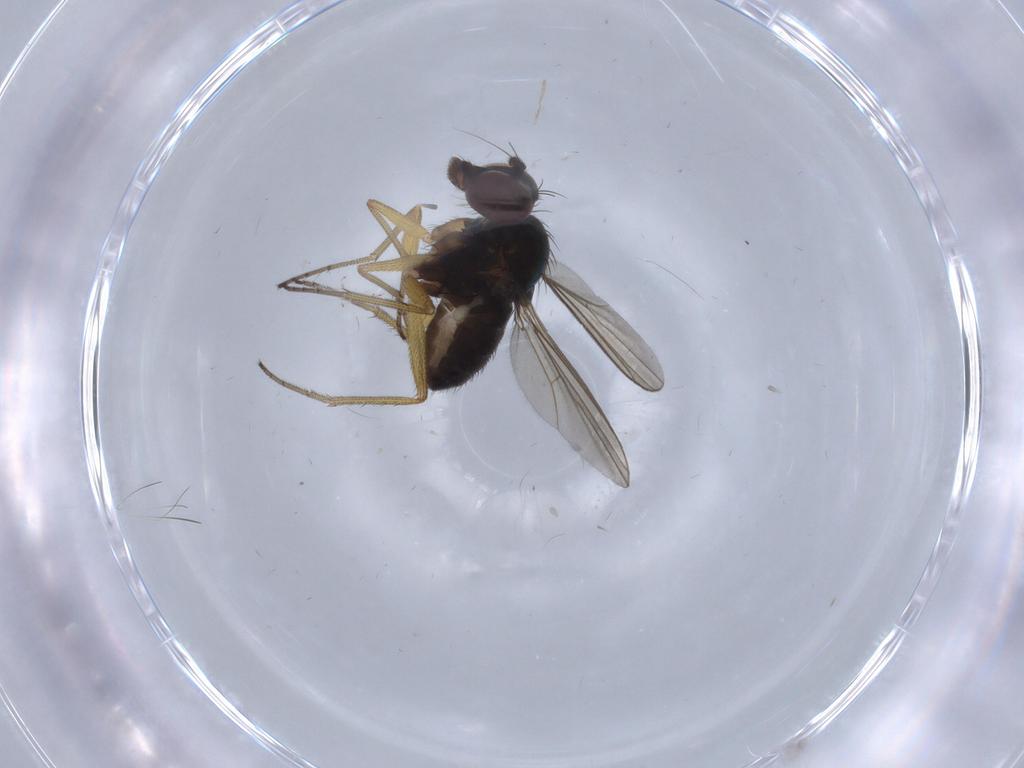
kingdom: Animalia
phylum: Arthropoda
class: Insecta
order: Diptera
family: Dolichopodidae
